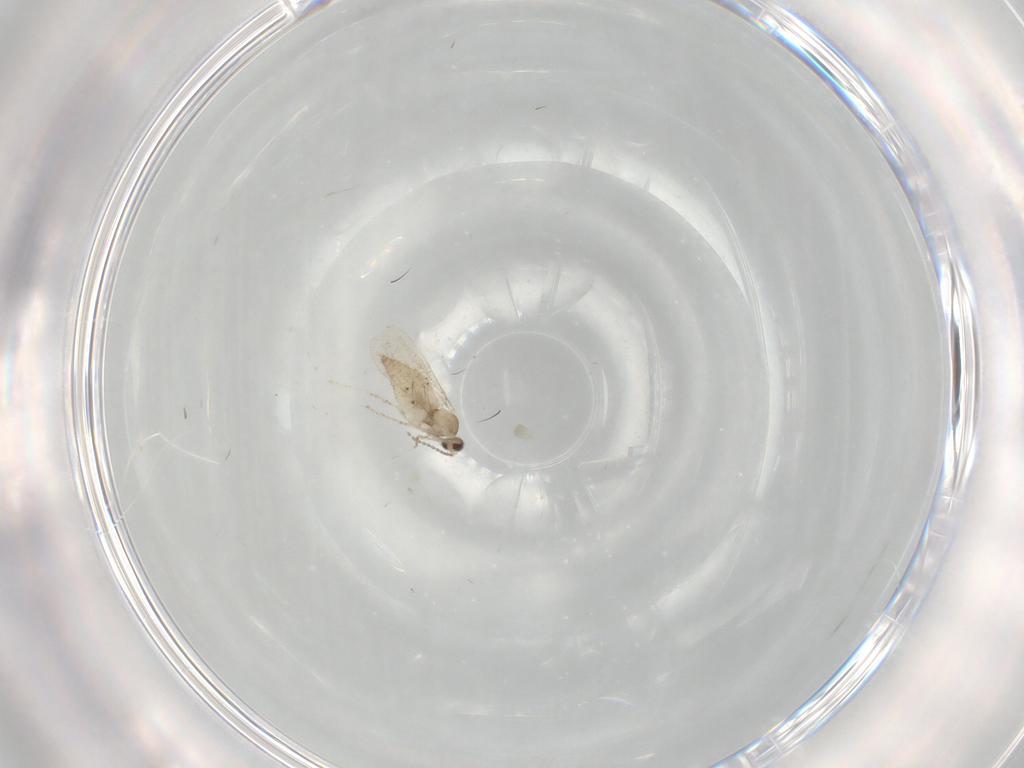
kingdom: Animalia
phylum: Arthropoda
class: Insecta
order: Diptera
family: Cecidomyiidae
